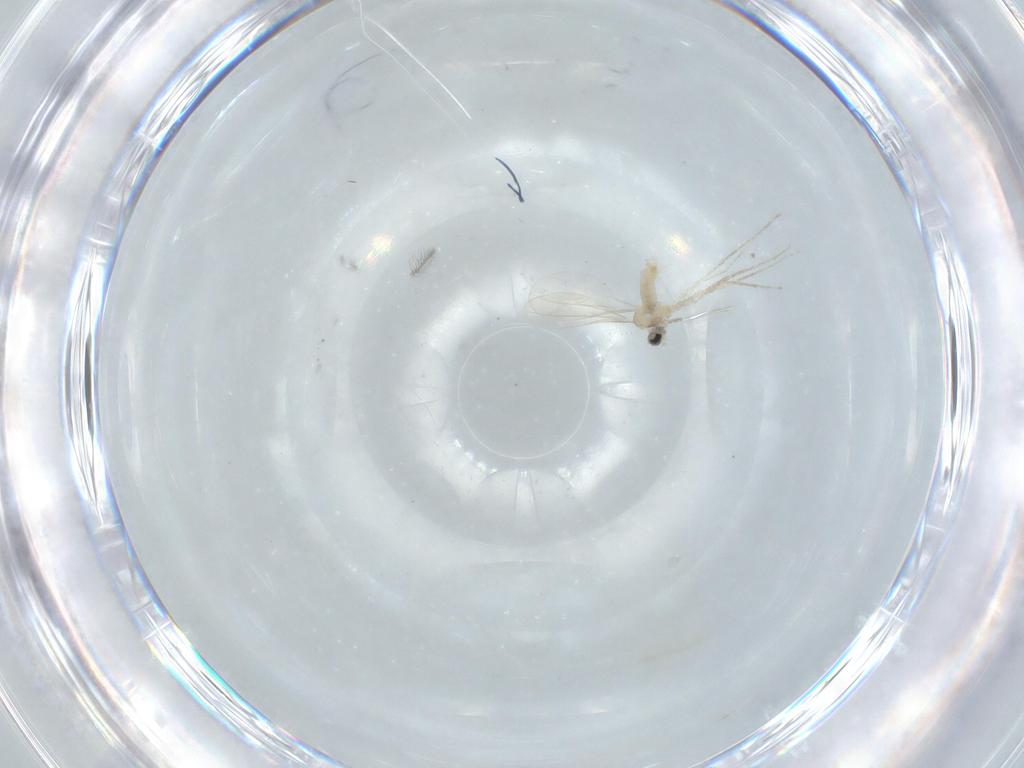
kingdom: Animalia
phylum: Arthropoda
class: Insecta
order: Diptera
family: Cecidomyiidae
